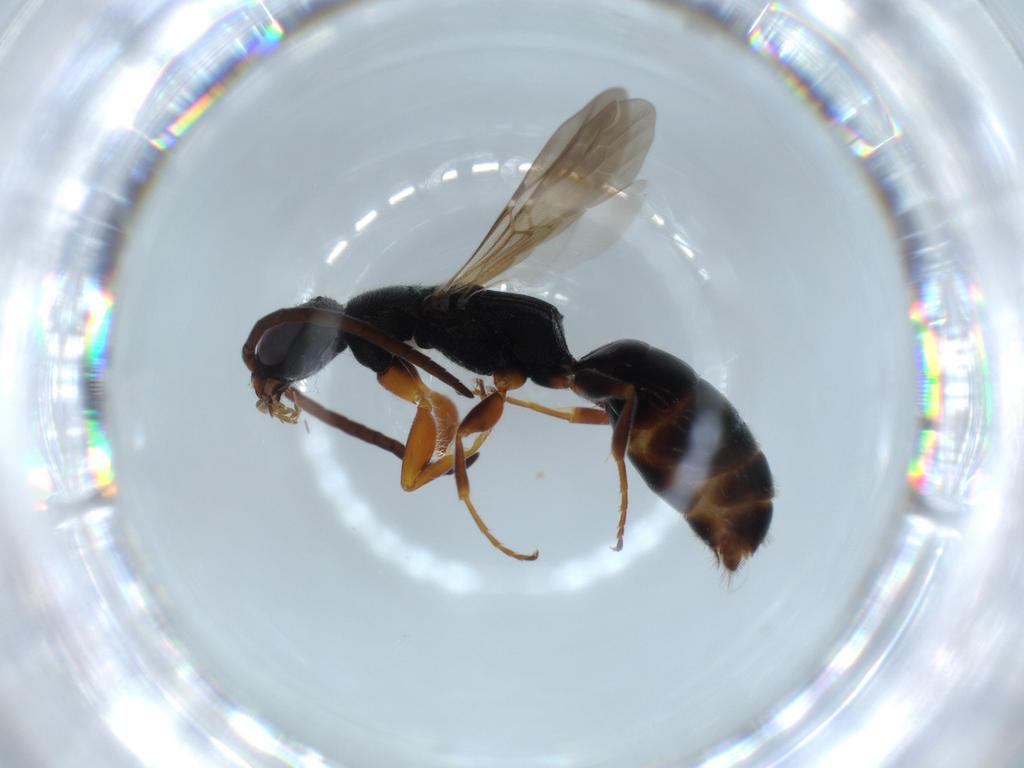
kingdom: Animalia
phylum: Arthropoda
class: Insecta
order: Hymenoptera
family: Bethylidae
